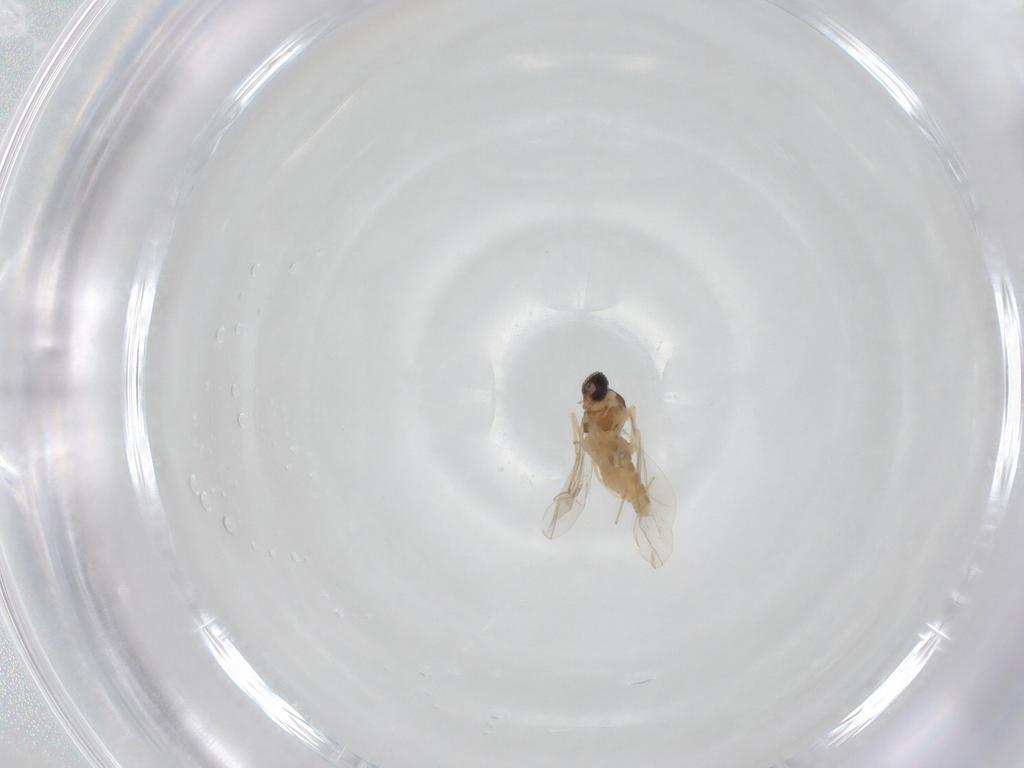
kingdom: Animalia
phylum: Arthropoda
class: Insecta
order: Diptera
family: Cecidomyiidae
